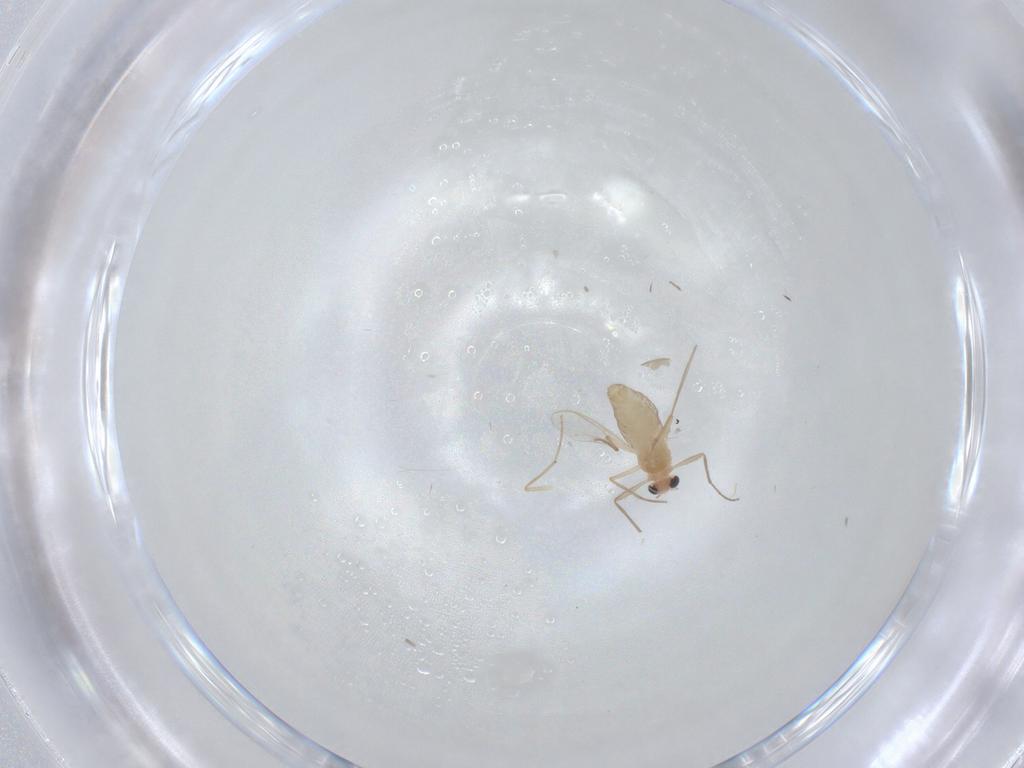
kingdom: Animalia
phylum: Arthropoda
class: Insecta
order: Diptera
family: Chironomidae
